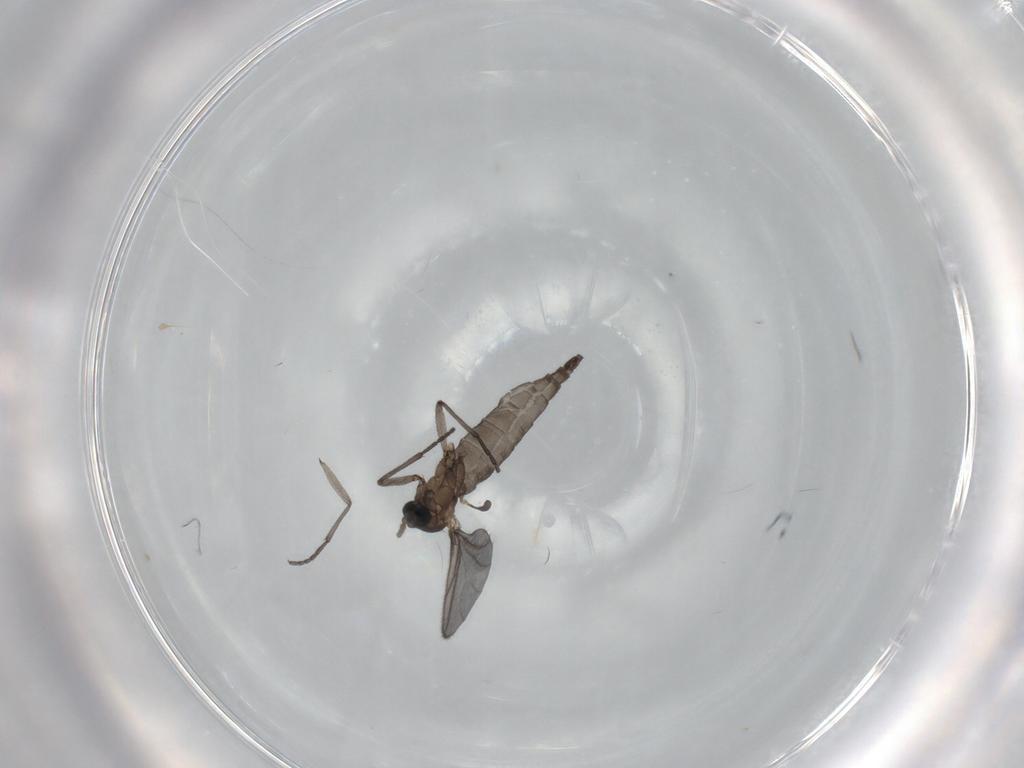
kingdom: Animalia
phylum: Arthropoda
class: Insecta
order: Diptera
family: Sciaridae
